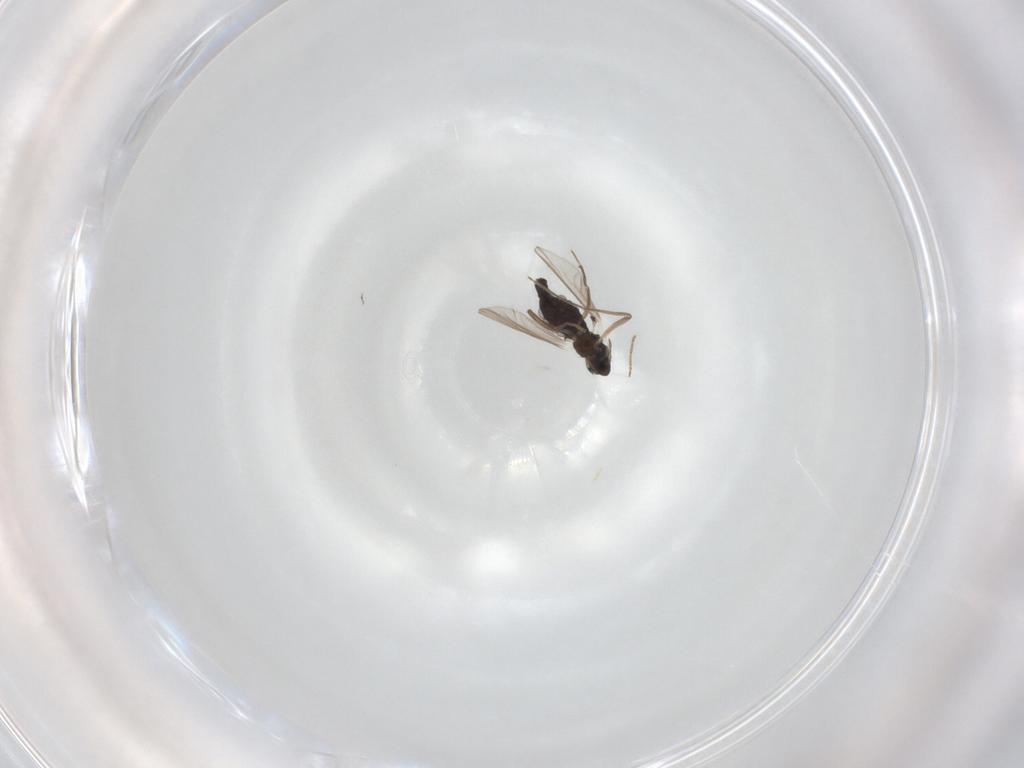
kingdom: Animalia
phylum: Arthropoda
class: Insecta
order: Diptera
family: Chironomidae
